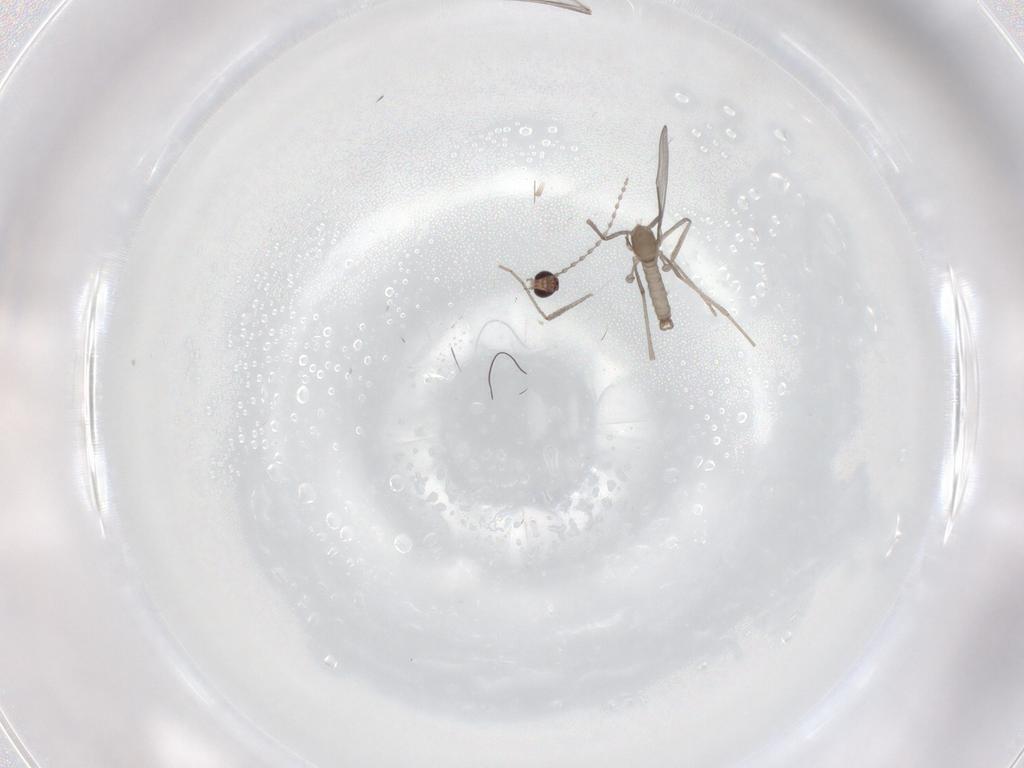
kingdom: Animalia
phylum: Arthropoda
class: Insecta
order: Diptera
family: Cecidomyiidae
